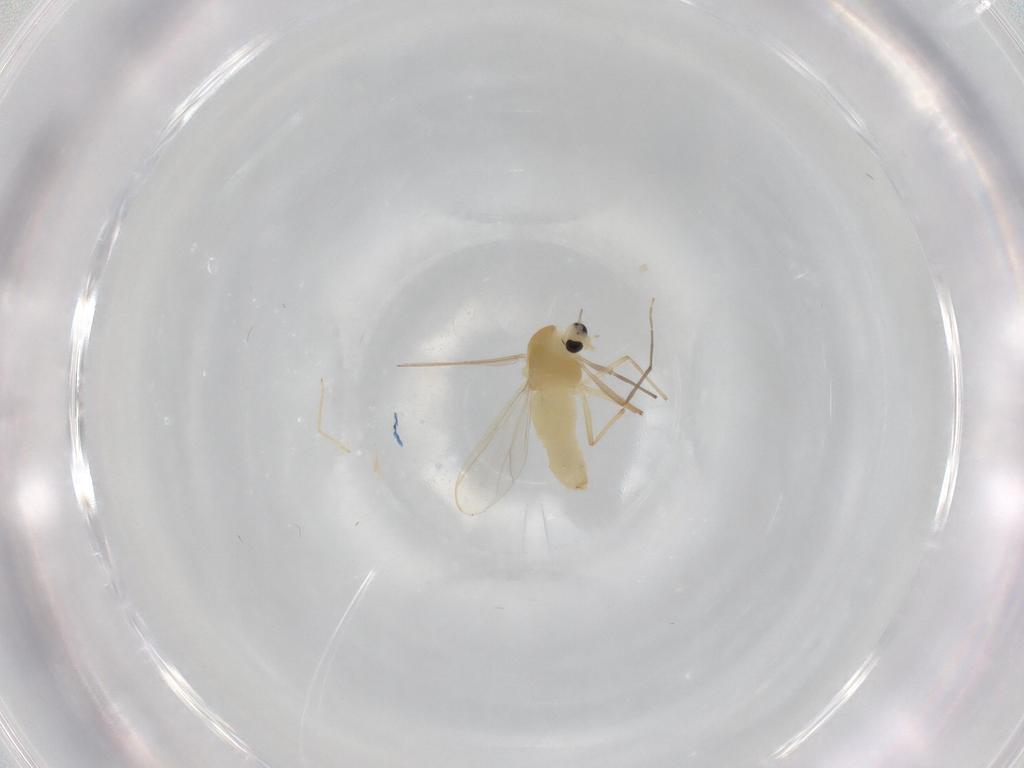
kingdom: Animalia
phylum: Arthropoda
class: Insecta
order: Diptera
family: Chironomidae
